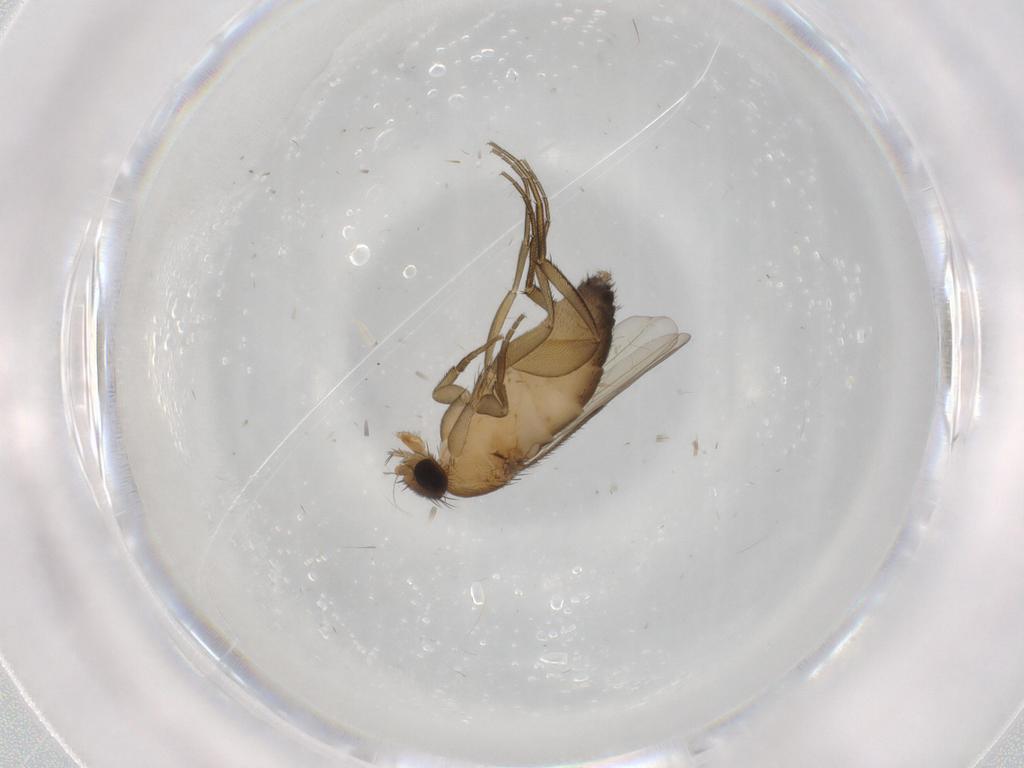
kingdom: Animalia
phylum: Arthropoda
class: Insecta
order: Diptera
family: Phoridae
